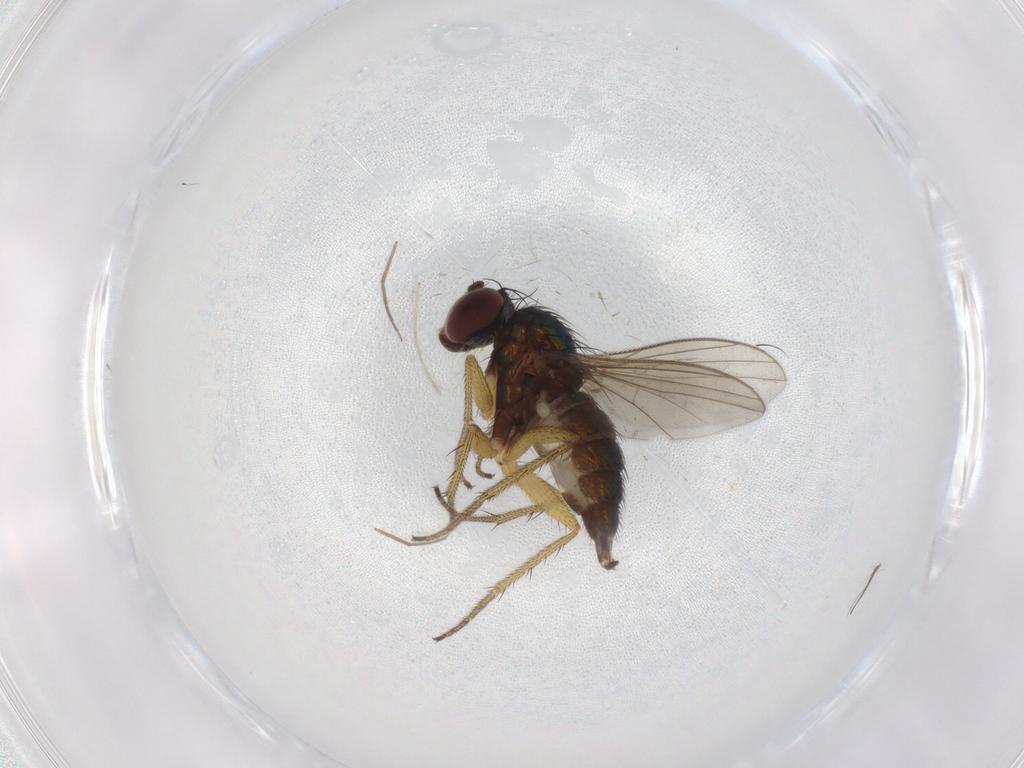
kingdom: Animalia
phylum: Arthropoda
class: Insecta
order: Diptera
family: Chironomidae
